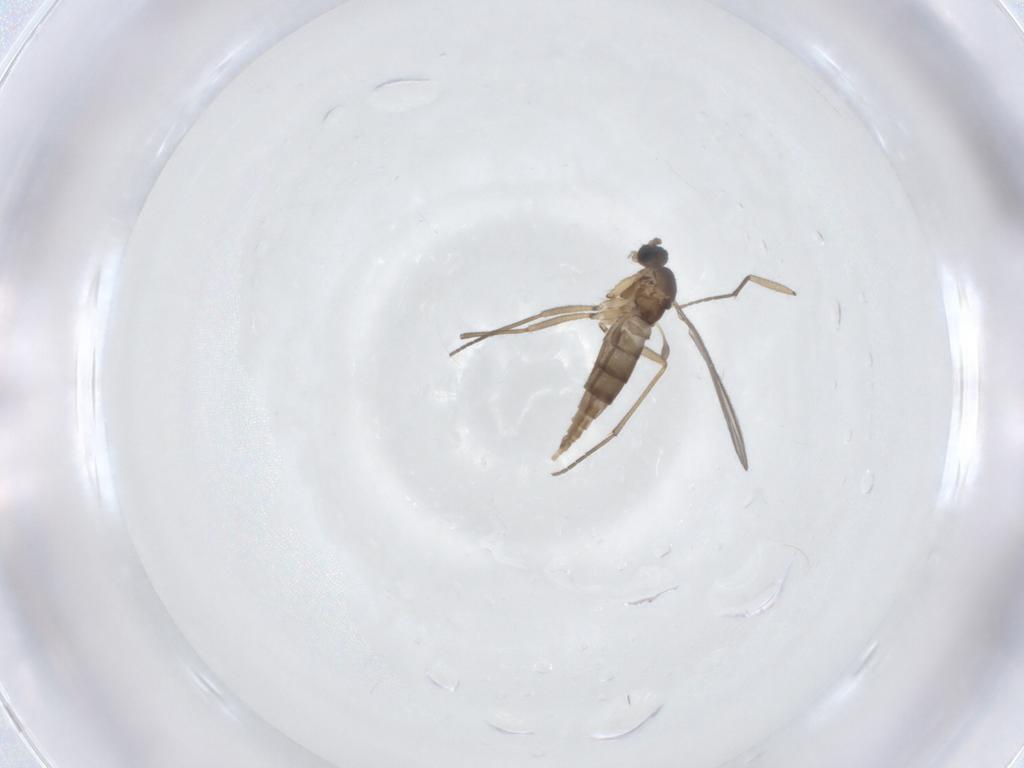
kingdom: Animalia
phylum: Arthropoda
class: Insecta
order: Diptera
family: Sciaridae
